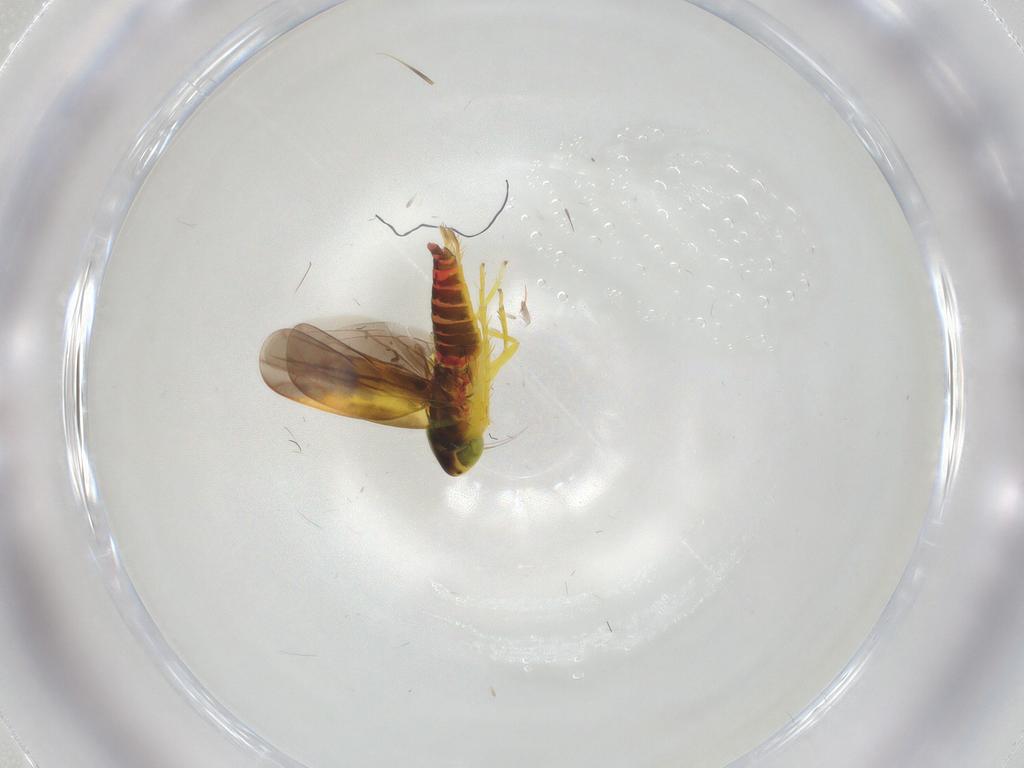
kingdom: Animalia
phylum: Arthropoda
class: Insecta
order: Hemiptera
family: Cicadellidae
